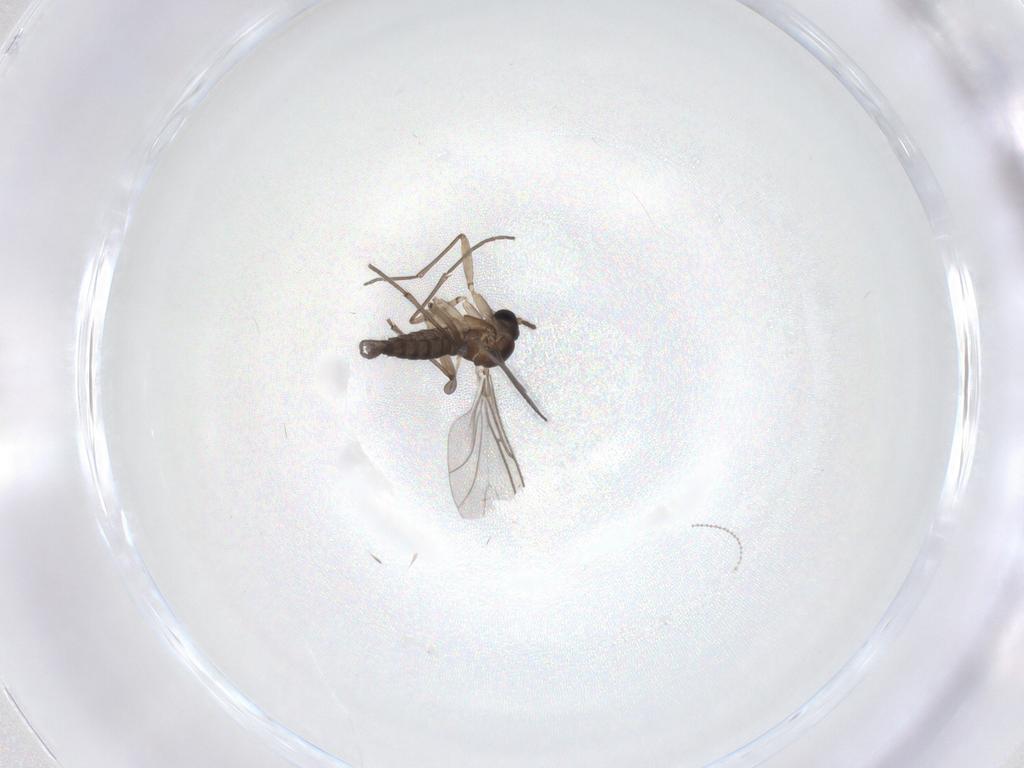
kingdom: Animalia
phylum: Arthropoda
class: Insecta
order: Diptera
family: Sciaridae
